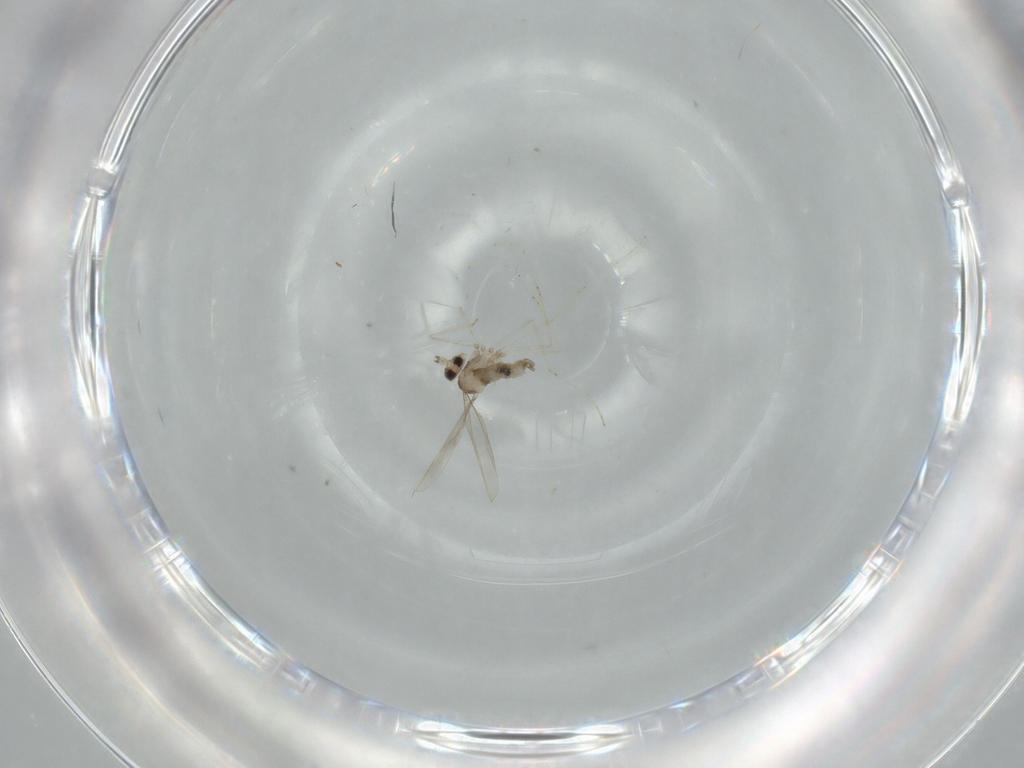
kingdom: Animalia
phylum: Arthropoda
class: Insecta
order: Diptera
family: Cecidomyiidae
